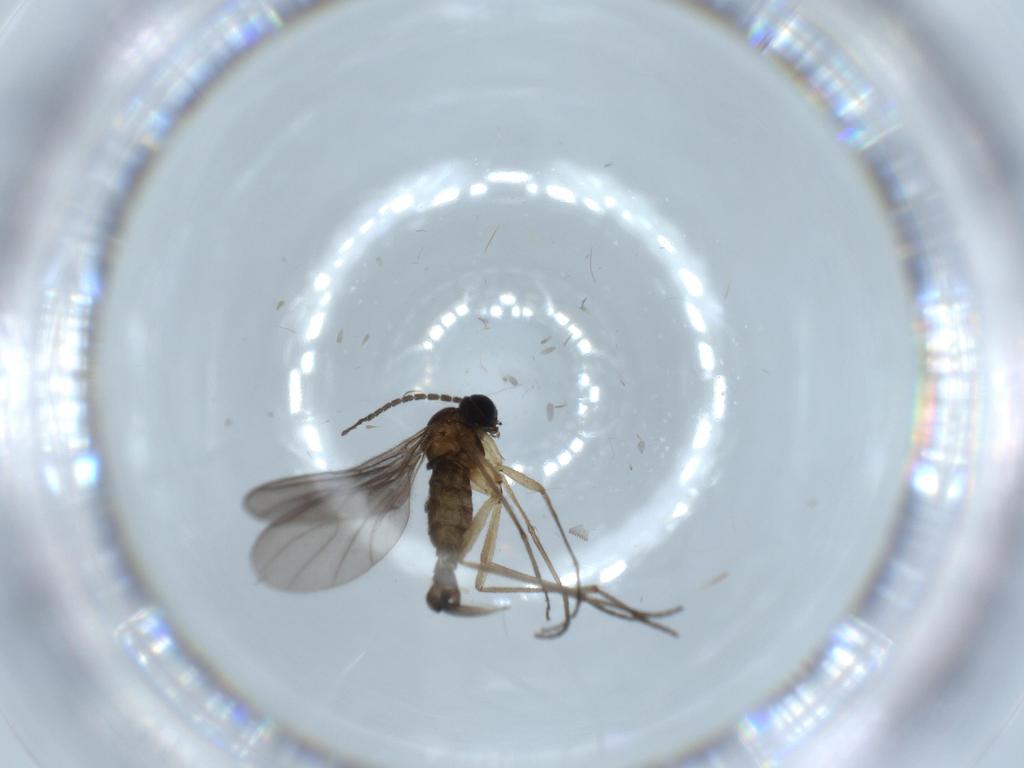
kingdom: Animalia
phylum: Arthropoda
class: Insecta
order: Diptera
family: Sciaridae
